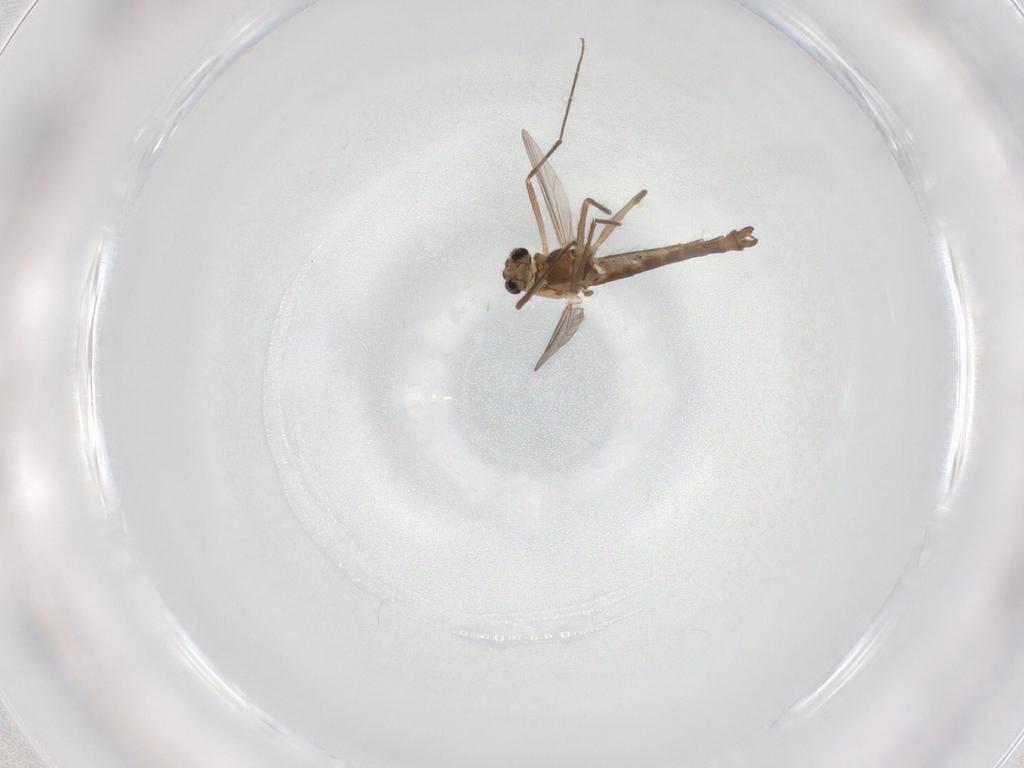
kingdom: Animalia
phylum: Arthropoda
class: Insecta
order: Diptera
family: Chironomidae
